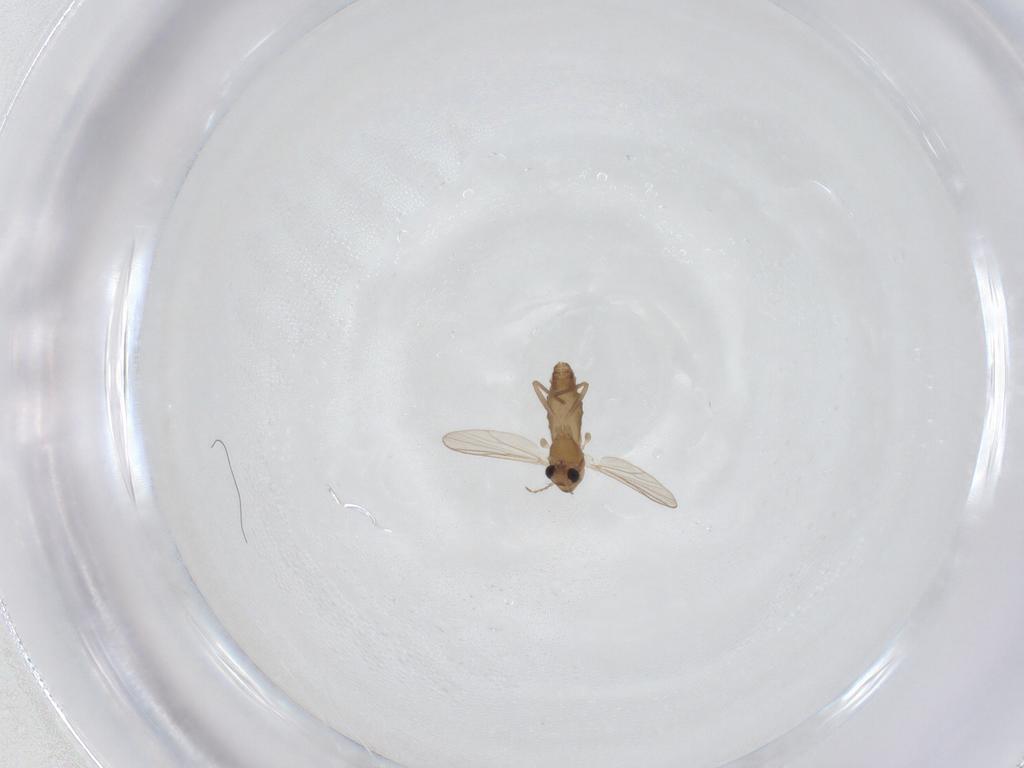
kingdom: Animalia
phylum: Arthropoda
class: Insecta
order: Diptera
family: Chironomidae
